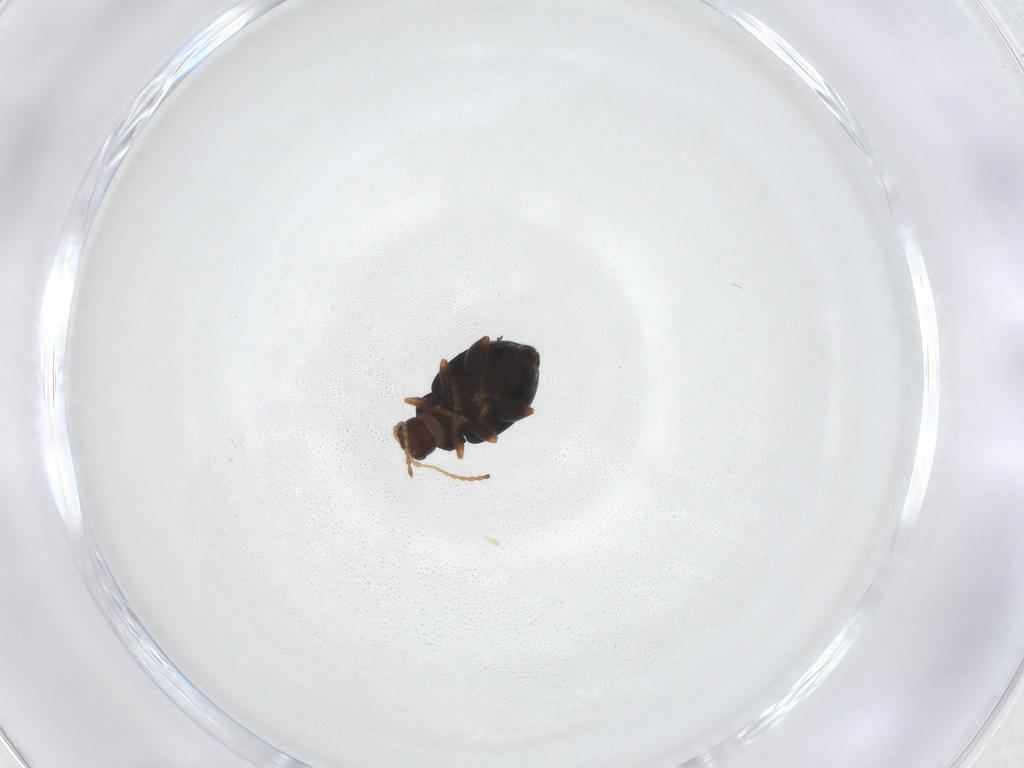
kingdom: Animalia
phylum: Arthropoda
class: Insecta
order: Coleoptera
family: Chrysomelidae
